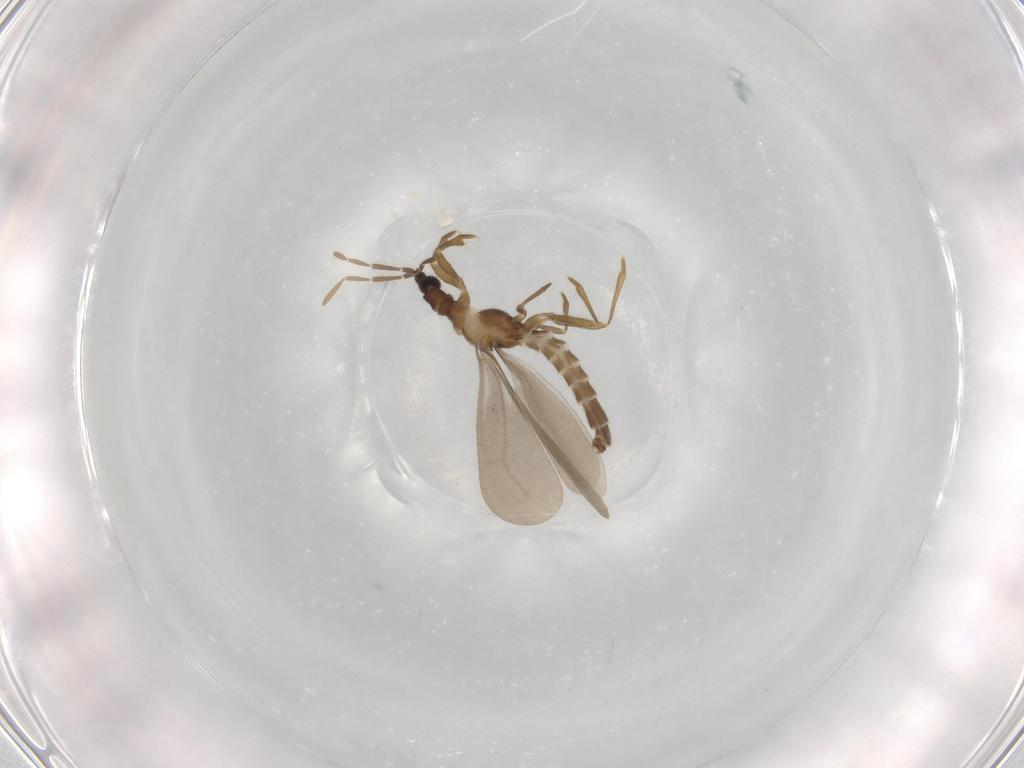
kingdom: Animalia
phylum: Arthropoda
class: Insecta
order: Hemiptera
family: Enicocephalidae
